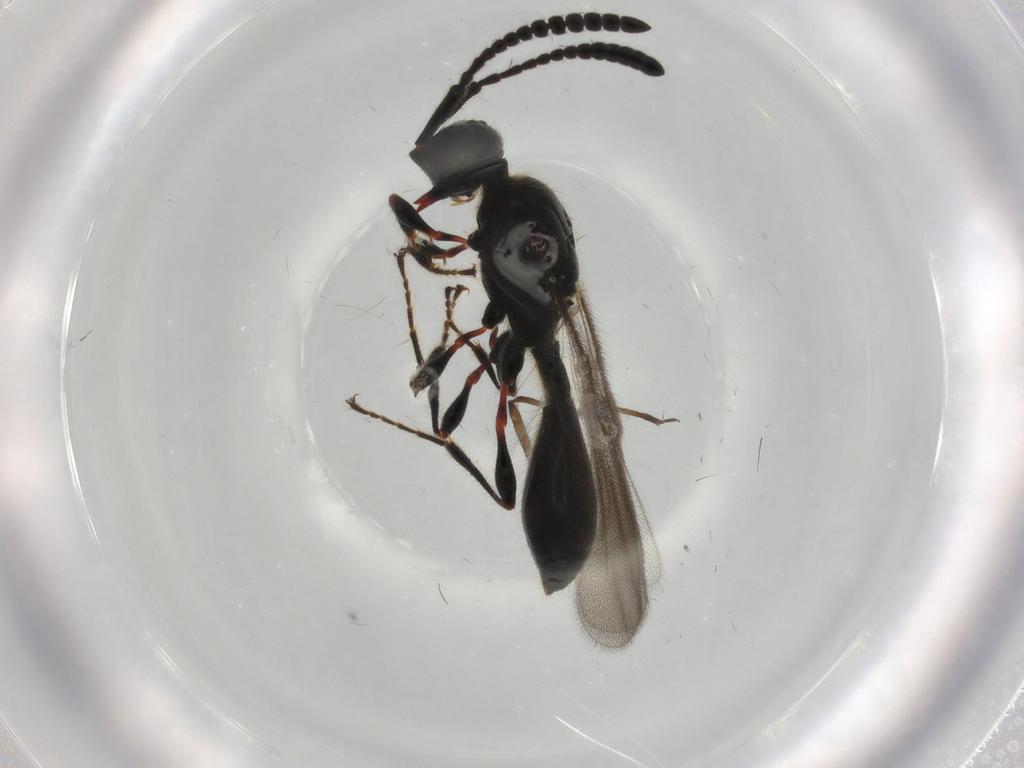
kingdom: Animalia
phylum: Arthropoda
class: Insecta
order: Hymenoptera
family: Diapriidae
